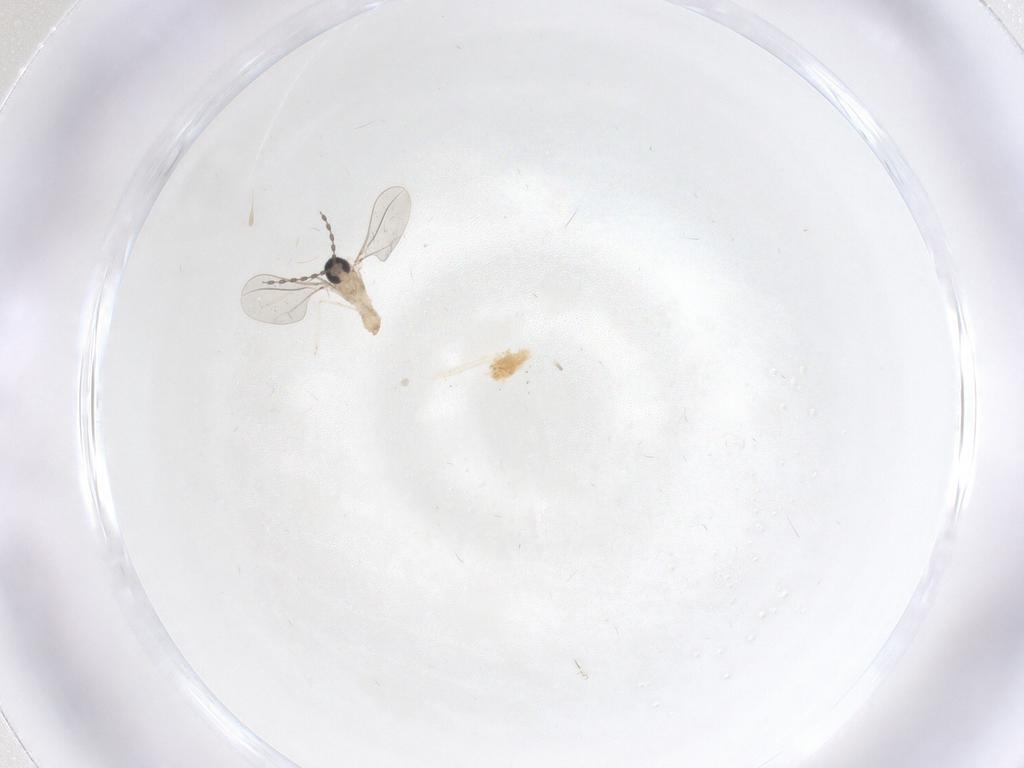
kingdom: Animalia
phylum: Arthropoda
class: Insecta
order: Diptera
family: Cecidomyiidae
